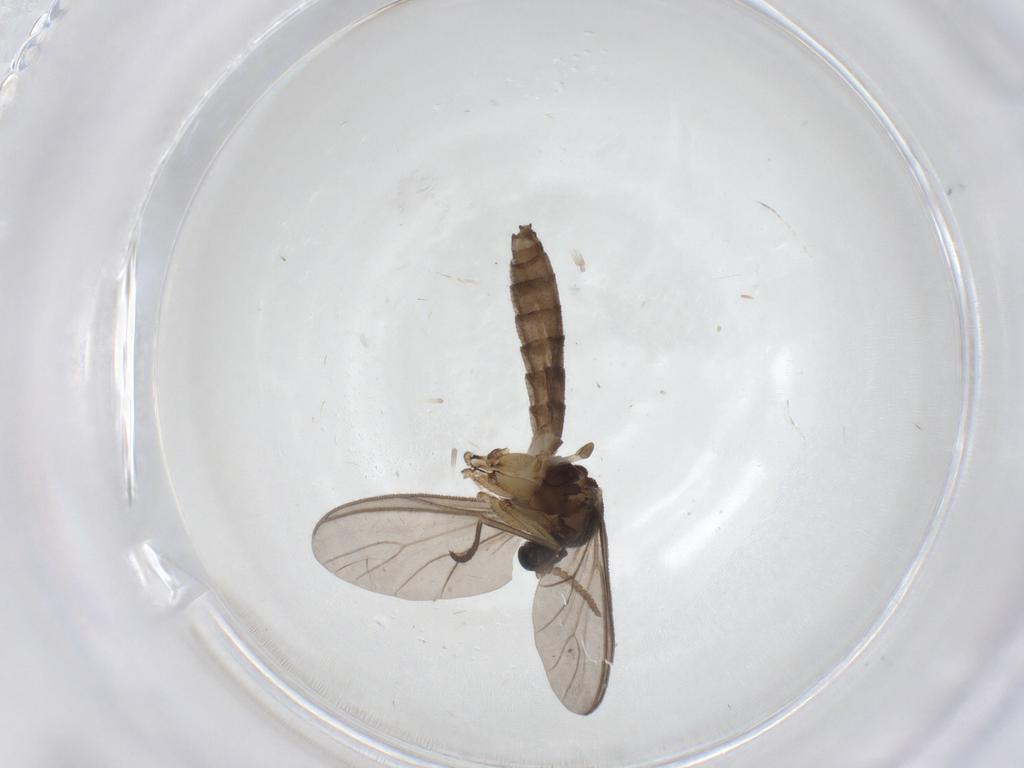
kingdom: Animalia
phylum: Arthropoda
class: Insecta
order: Diptera
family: Mycetophilidae
